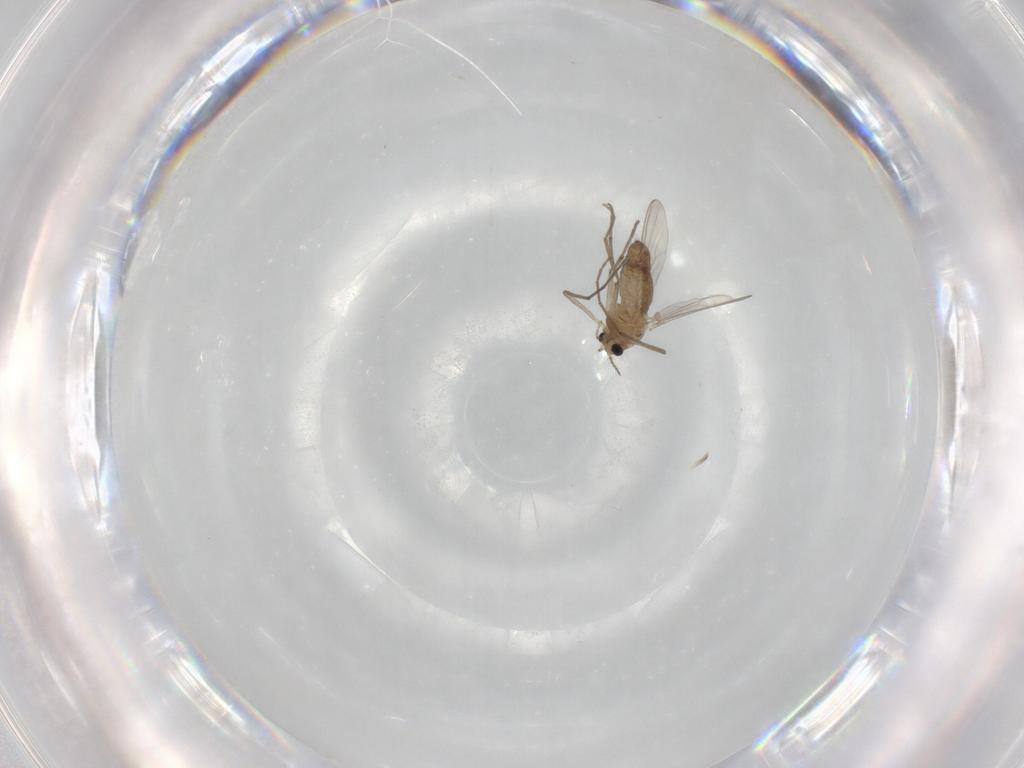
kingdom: Animalia
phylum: Arthropoda
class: Insecta
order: Diptera
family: Chironomidae
